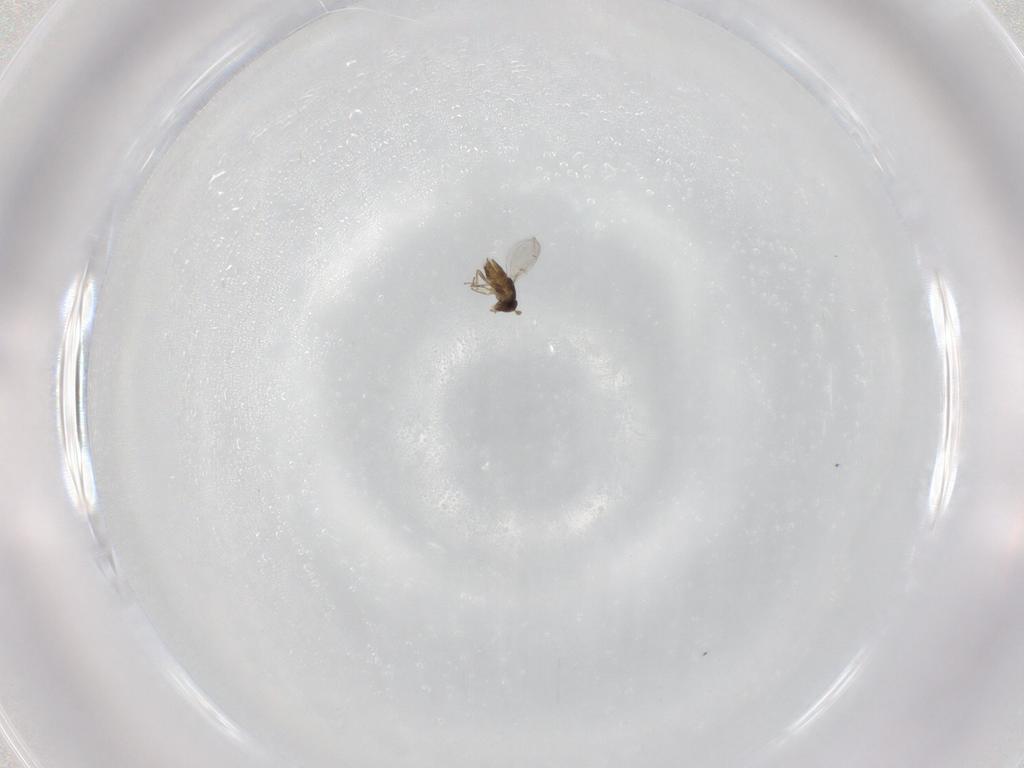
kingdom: Animalia
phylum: Arthropoda
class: Insecta
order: Hymenoptera
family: Encyrtidae
